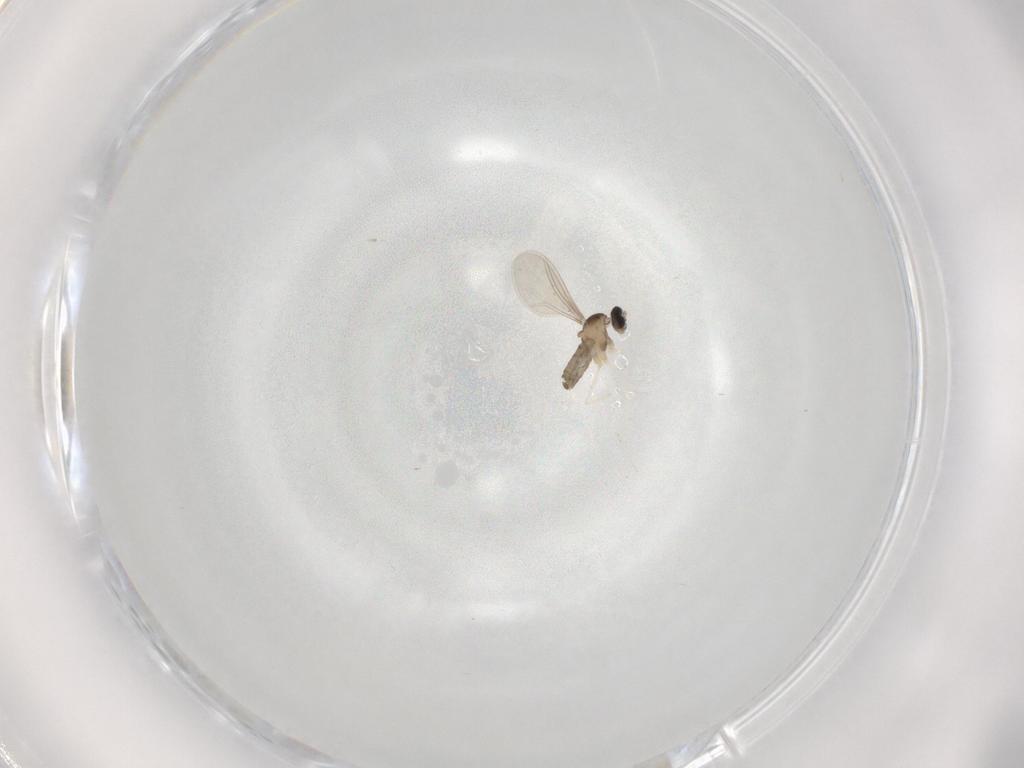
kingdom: Animalia
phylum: Arthropoda
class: Insecta
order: Diptera
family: Cecidomyiidae
